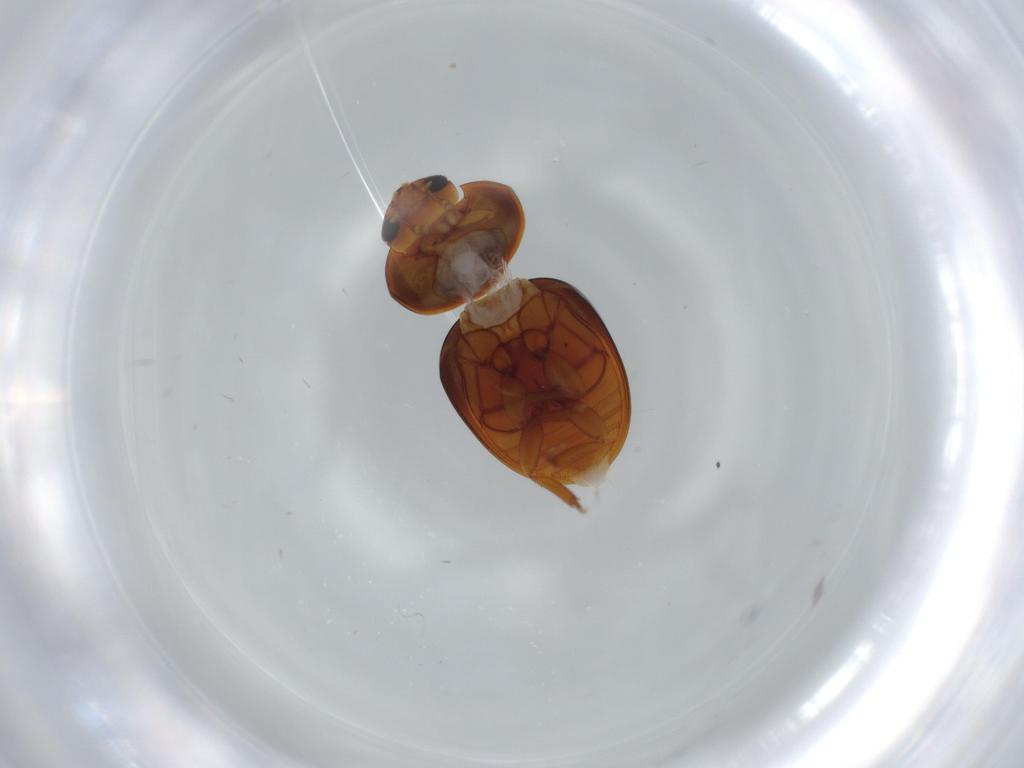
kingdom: Animalia
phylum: Arthropoda
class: Insecta
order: Coleoptera
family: Phalacridae
